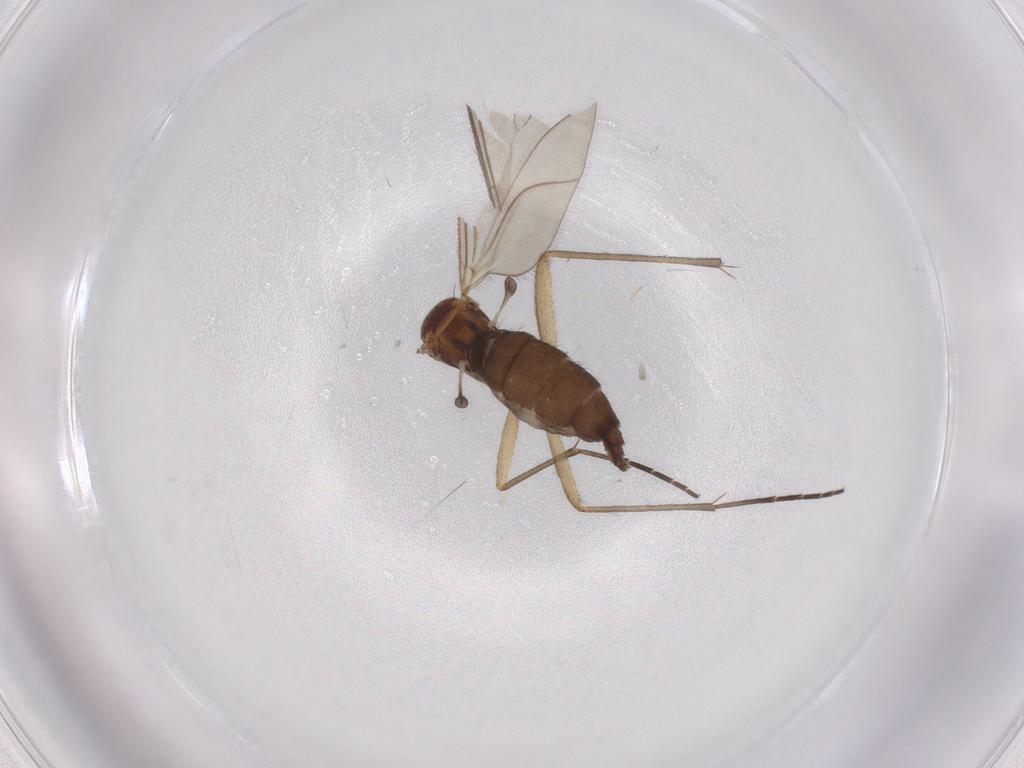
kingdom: Animalia
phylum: Arthropoda
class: Insecta
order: Diptera
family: Sciaridae
